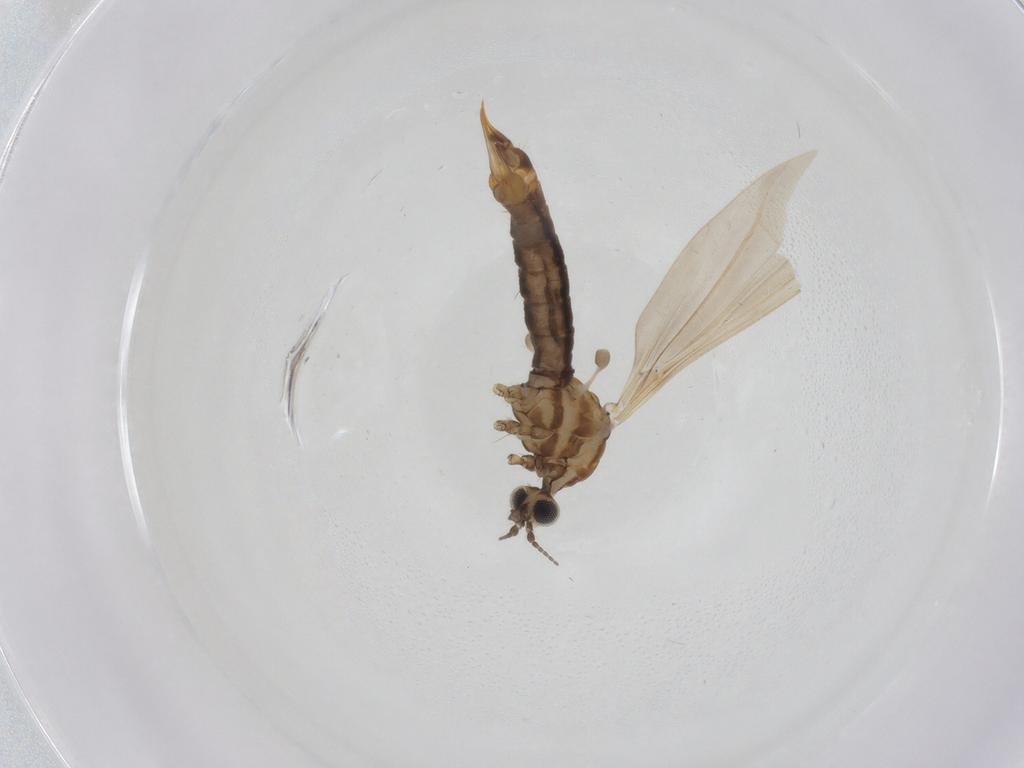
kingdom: Animalia
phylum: Arthropoda
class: Insecta
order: Diptera
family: Limoniidae
